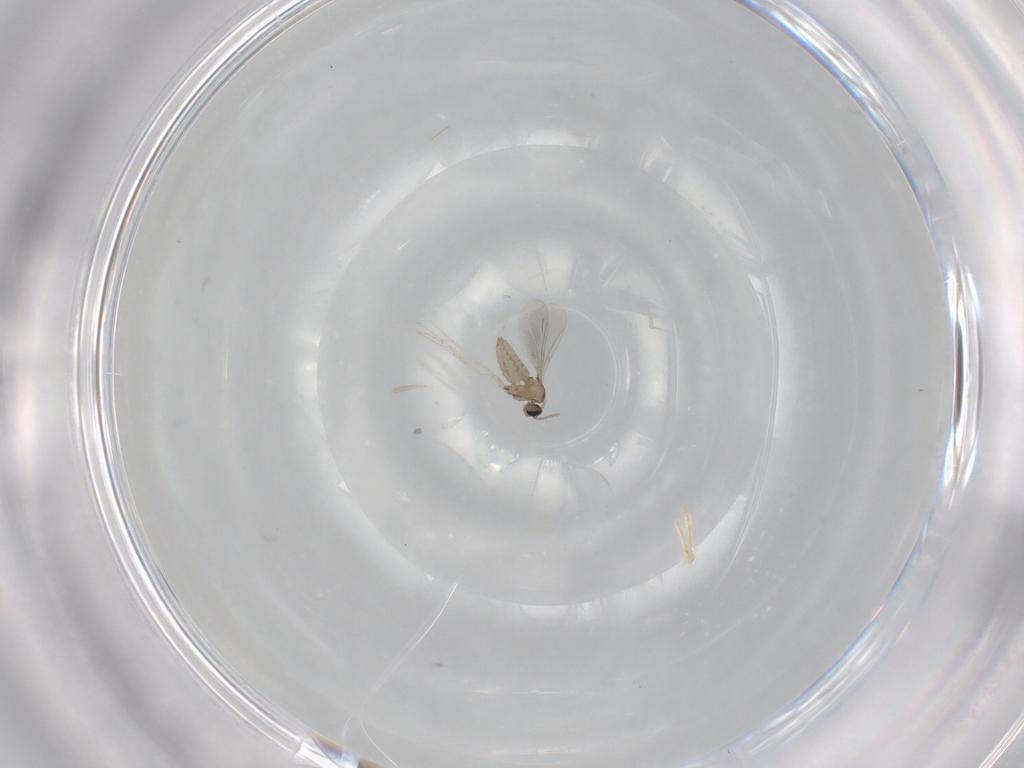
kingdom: Animalia
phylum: Arthropoda
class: Insecta
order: Diptera
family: Cecidomyiidae
